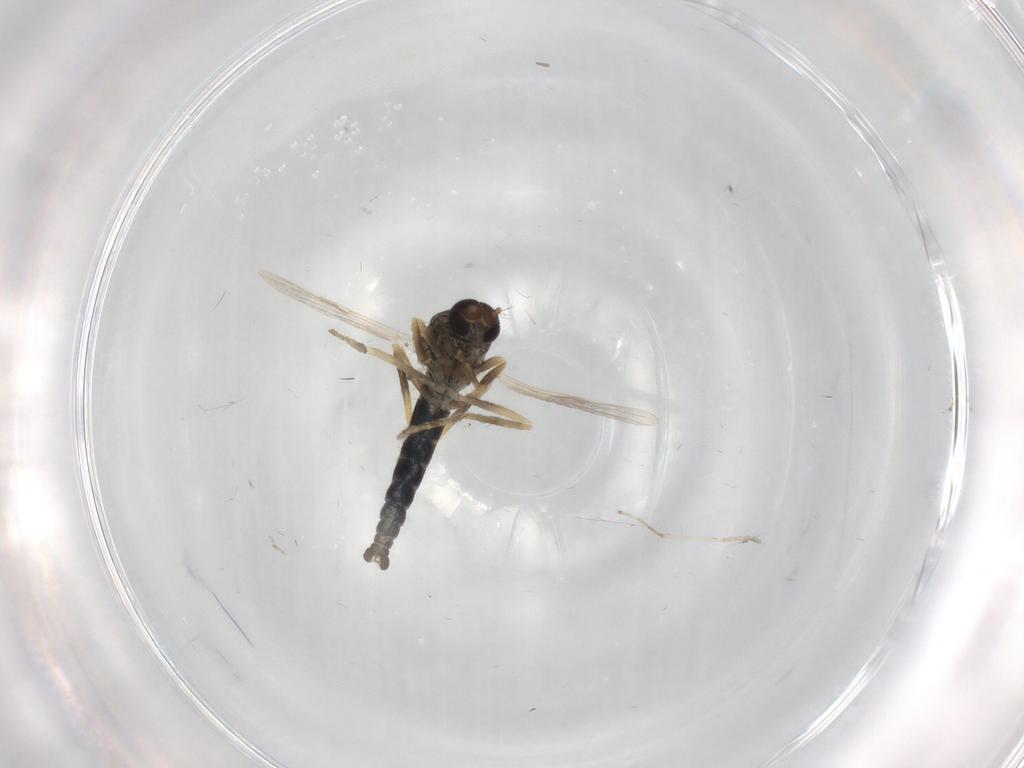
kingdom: Animalia
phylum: Arthropoda
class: Insecta
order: Diptera
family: Ceratopogonidae
